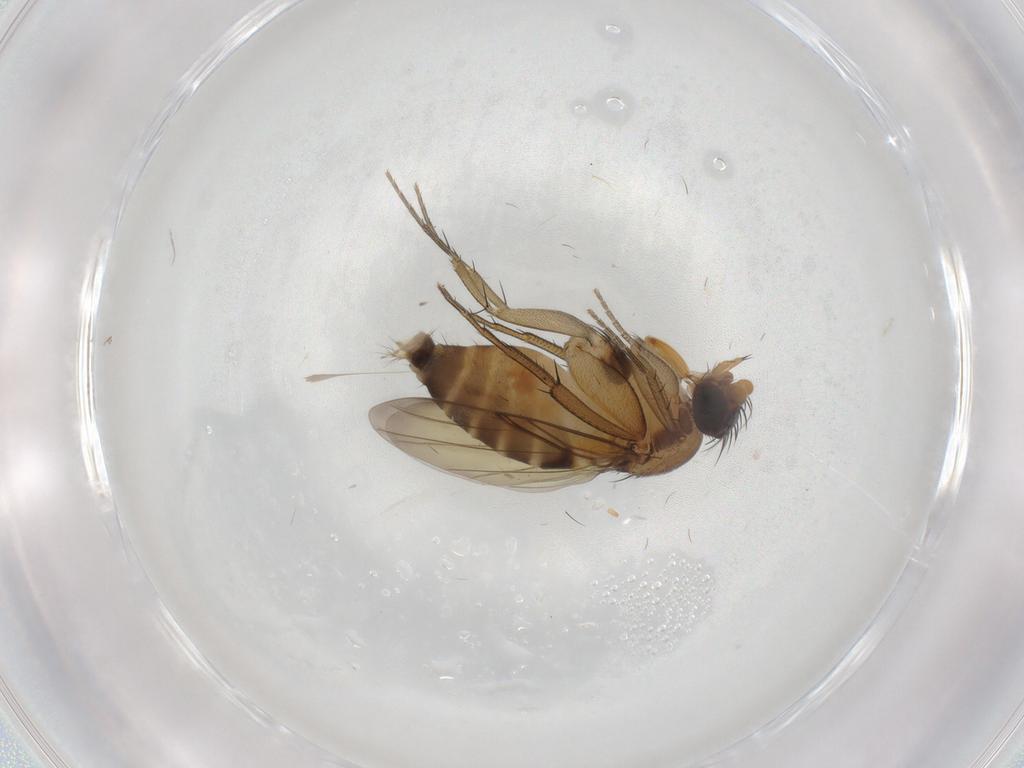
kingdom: Animalia
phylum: Arthropoda
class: Insecta
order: Diptera
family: Phoridae
